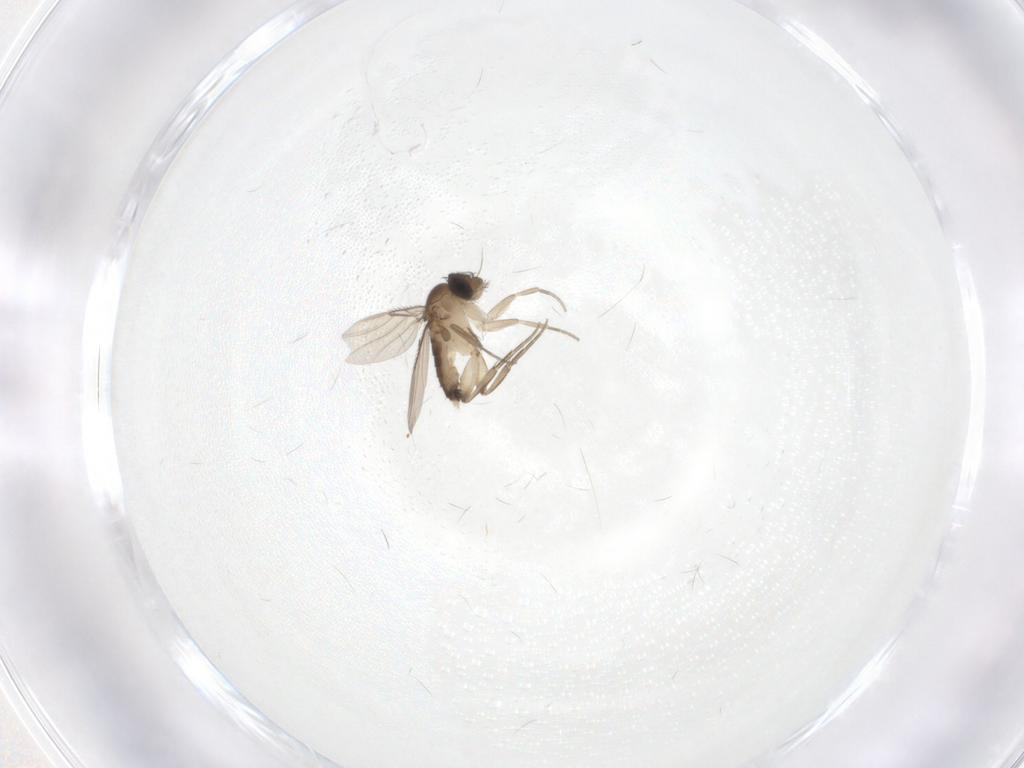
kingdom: Animalia
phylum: Arthropoda
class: Insecta
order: Diptera
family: Phoridae
